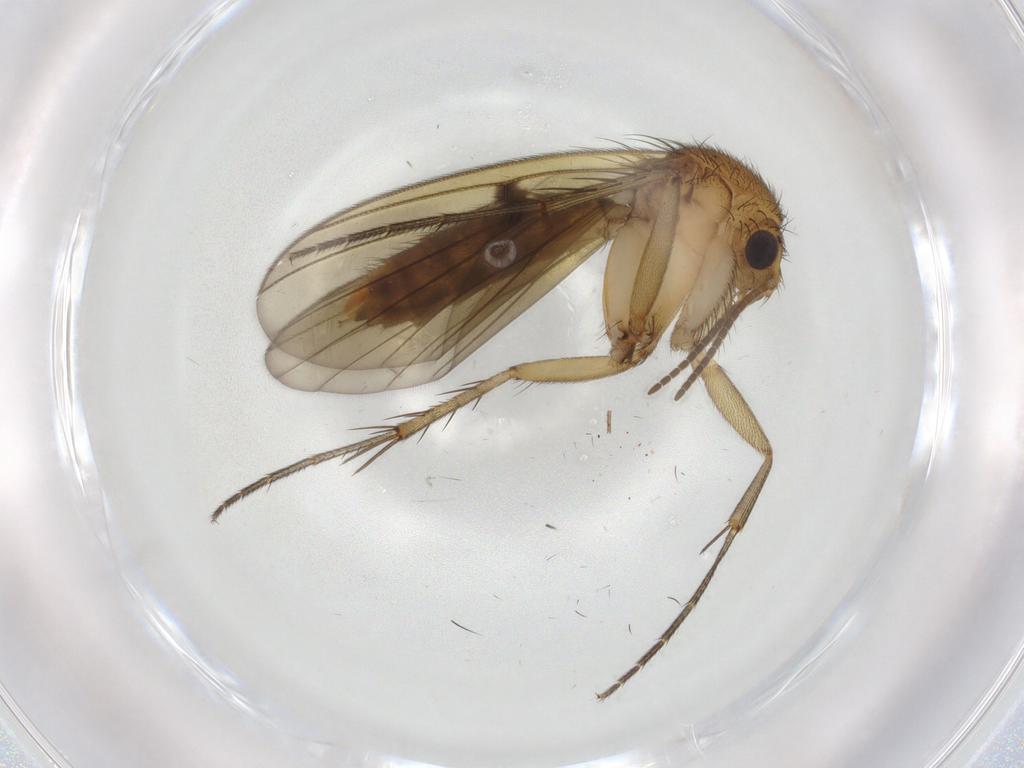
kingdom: Animalia
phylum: Arthropoda
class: Insecta
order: Diptera
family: Mycetophilidae
